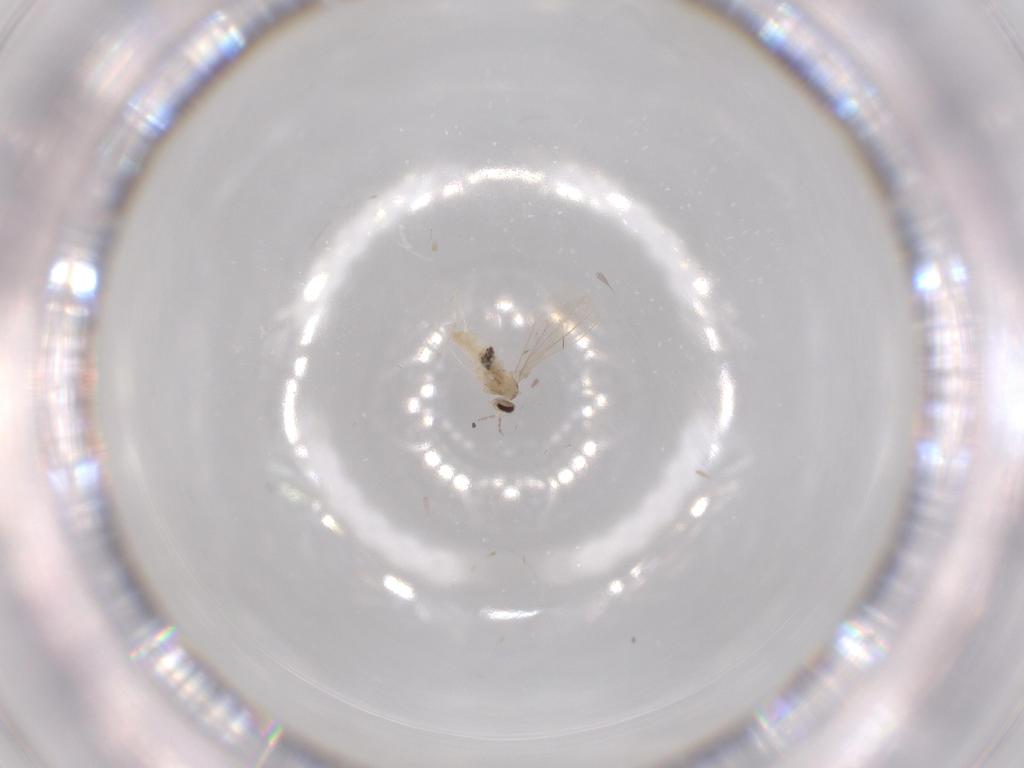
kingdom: Animalia
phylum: Arthropoda
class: Insecta
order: Diptera
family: Cecidomyiidae
